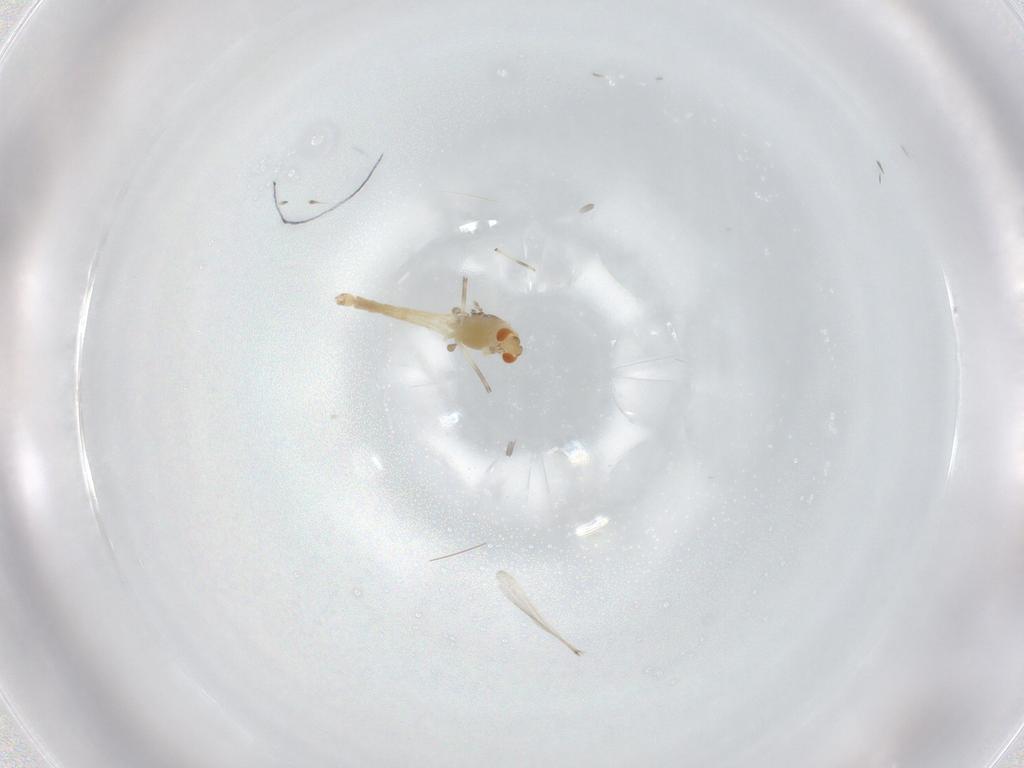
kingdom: Animalia
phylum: Arthropoda
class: Insecta
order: Diptera
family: Chironomidae
